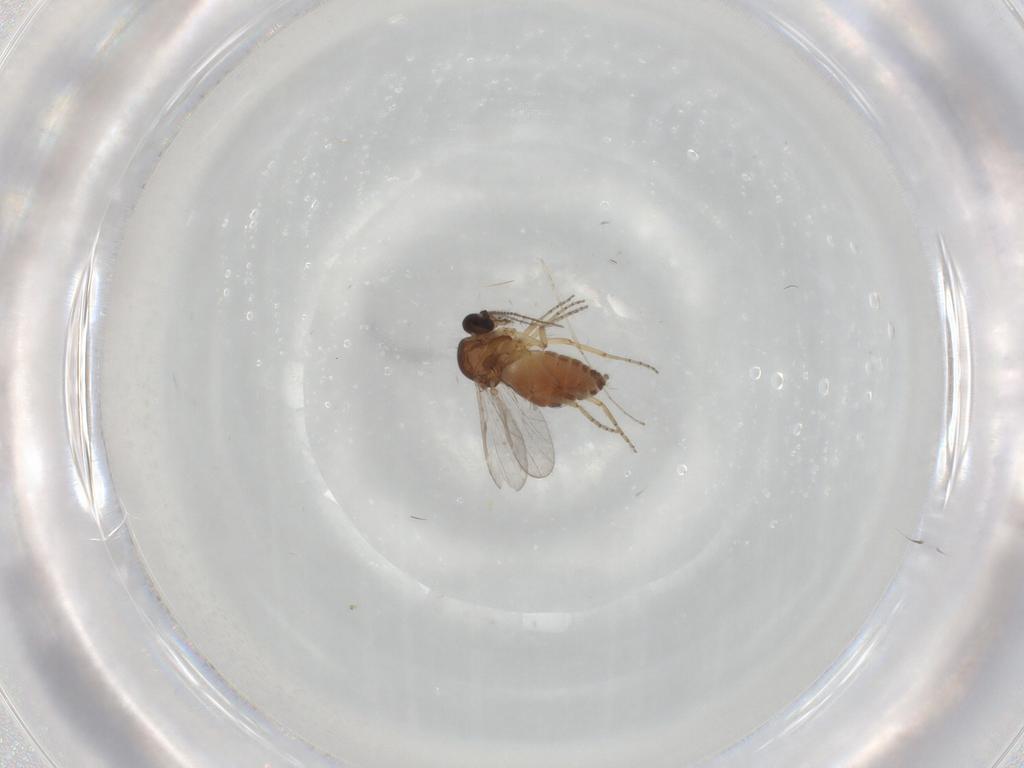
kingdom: Animalia
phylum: Arthropoda
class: Insecta
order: Diptera
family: Ceratopogonidae
